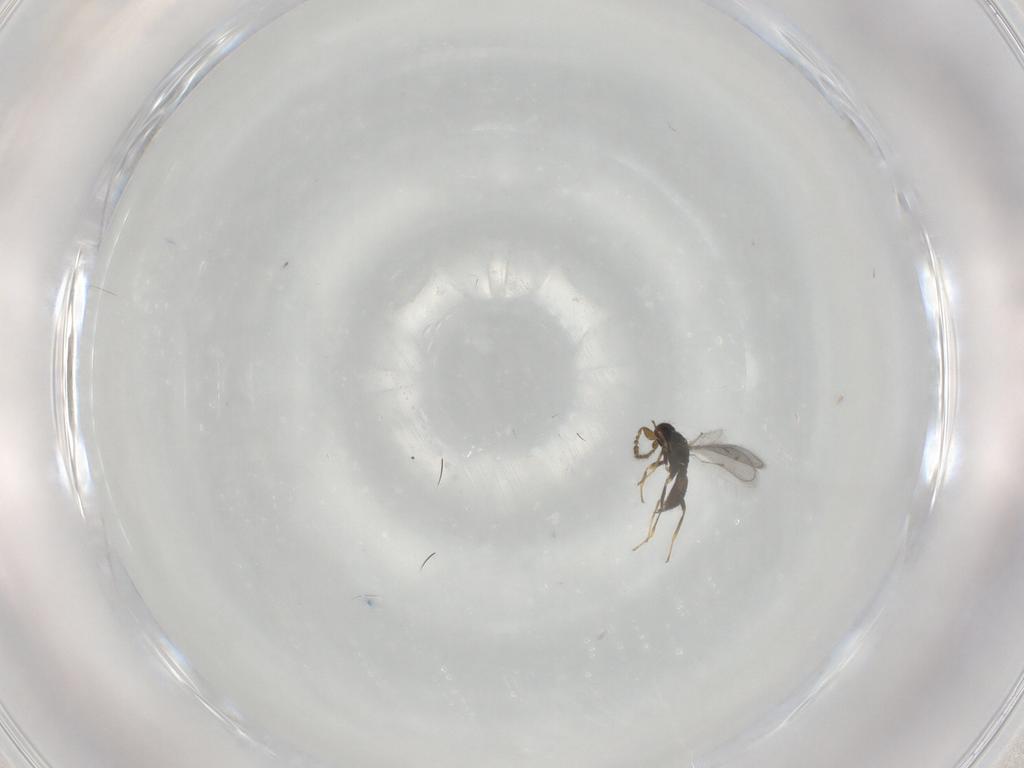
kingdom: Animalia
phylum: Arthropoda
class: Insecta
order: Hymenoptera
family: Eulophidae
